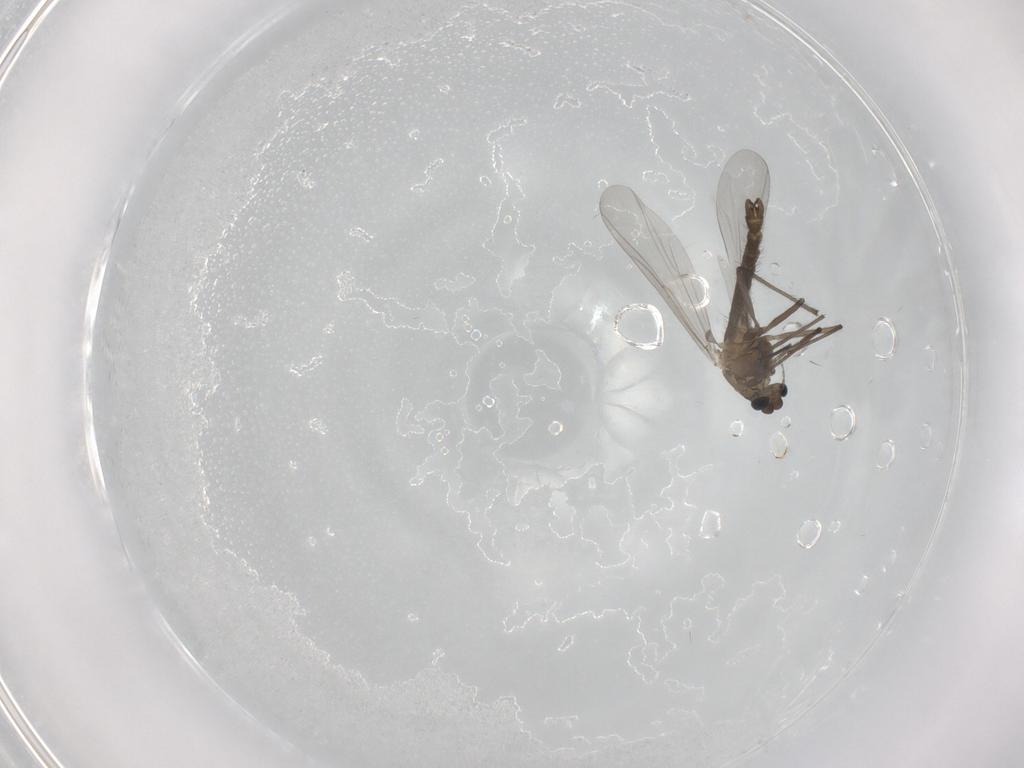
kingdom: Animalia
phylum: Arthropoda
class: Insecta
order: Diptera
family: Chironomidae
